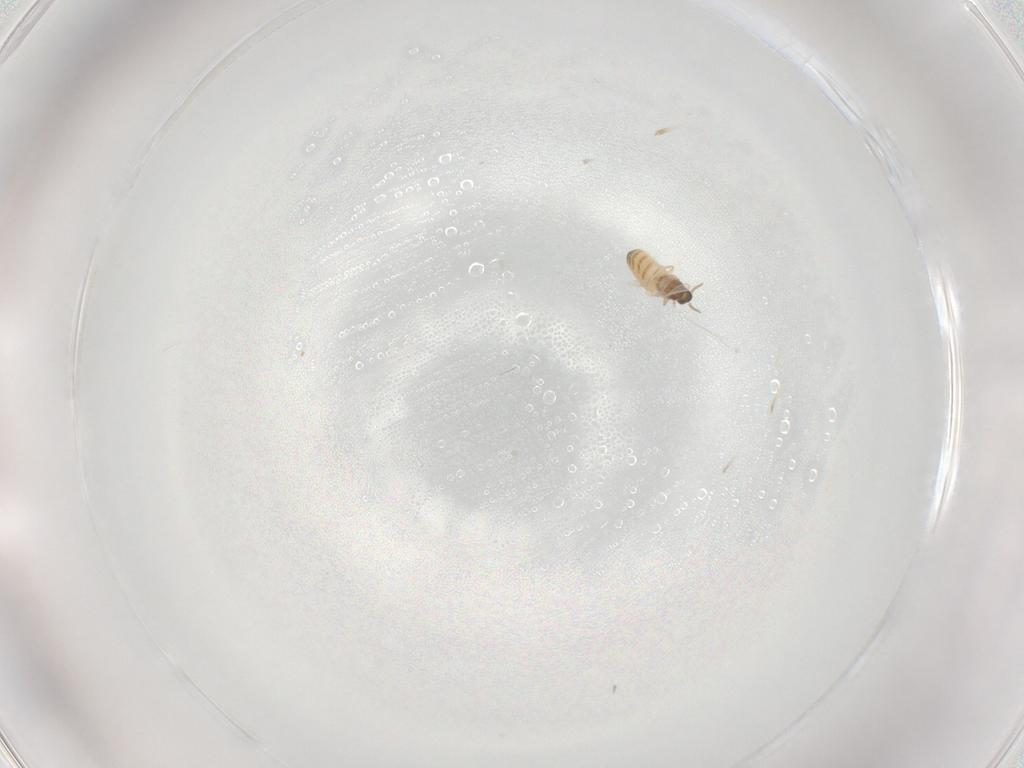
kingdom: Animalia
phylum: Arthropoda
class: Insecta
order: Diptera
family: Cecidomyiidae
